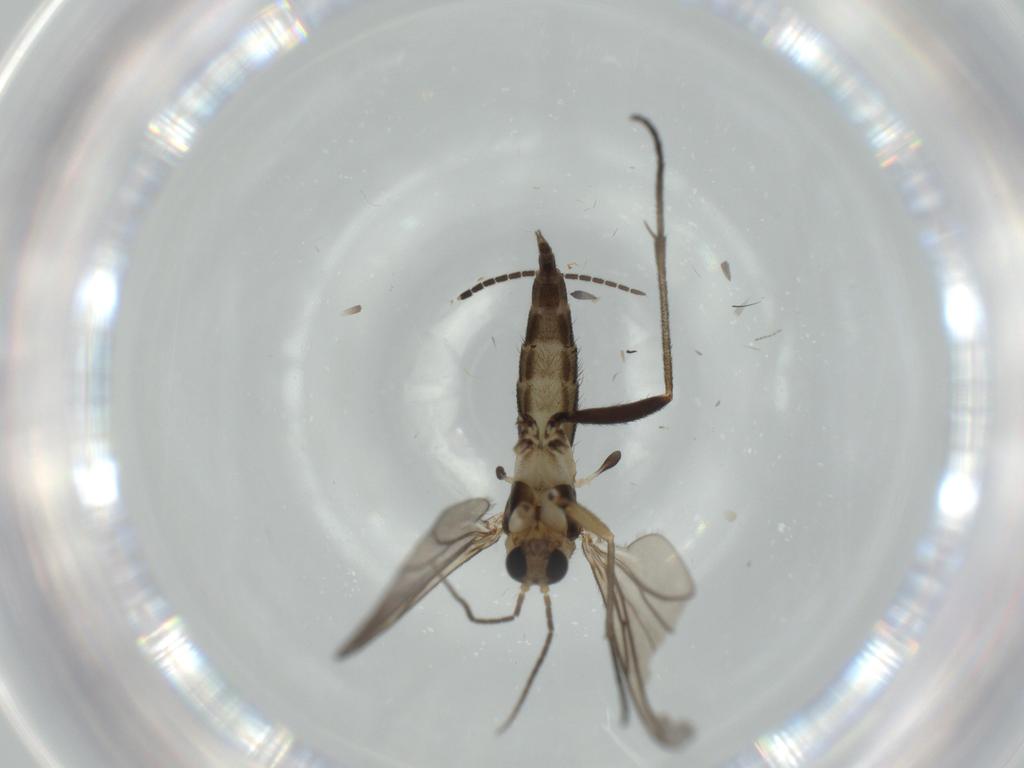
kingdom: Animalia
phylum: Arthropoda
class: Insecta
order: Diptera
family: Sciaridae
